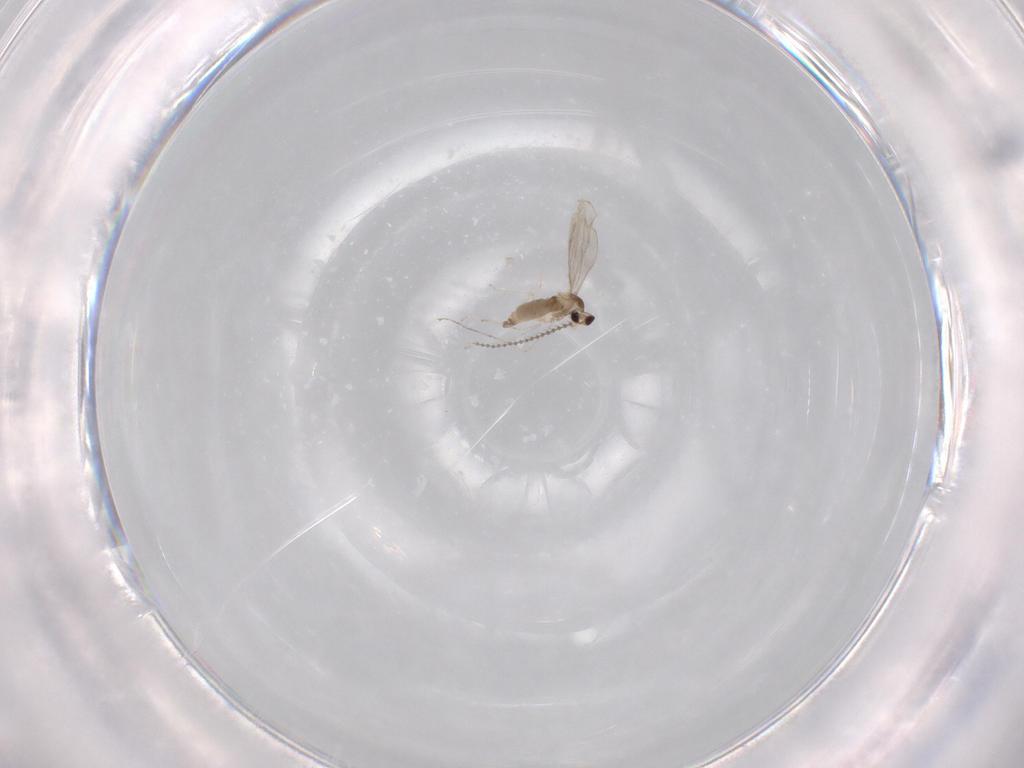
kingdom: Animalia
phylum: Arthropoda
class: Insecta
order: Diptera
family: Cecidomyiidae
